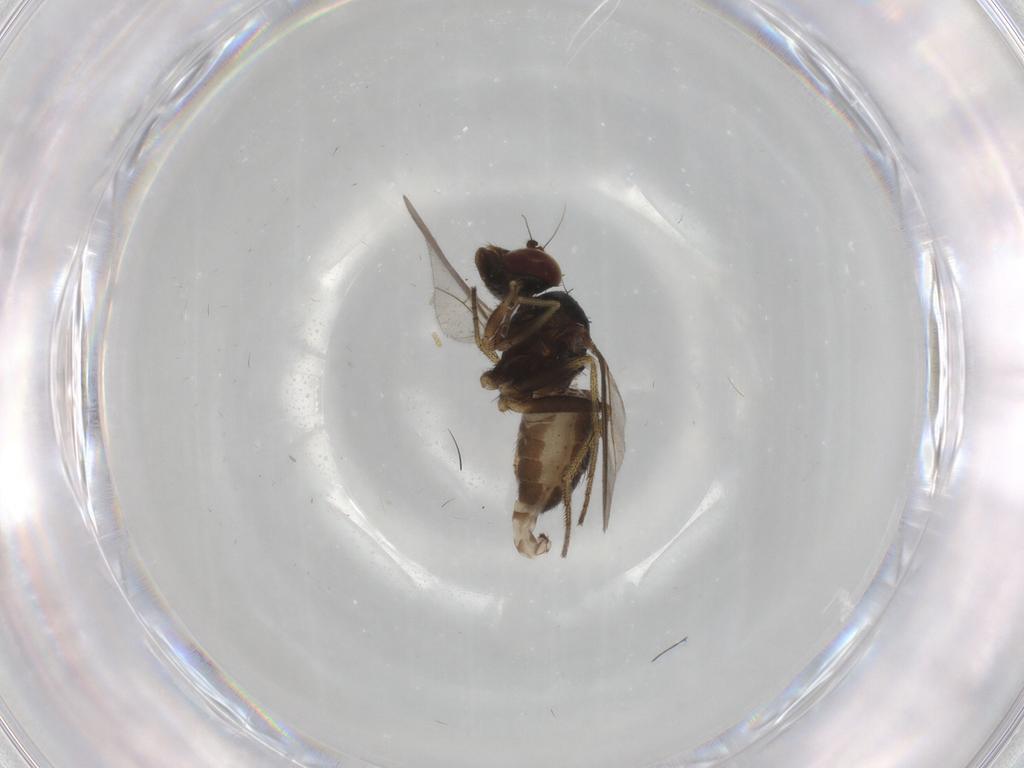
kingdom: Animalia
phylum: Arthropoda
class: Insecta
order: Diptera
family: Dolichopodidae
